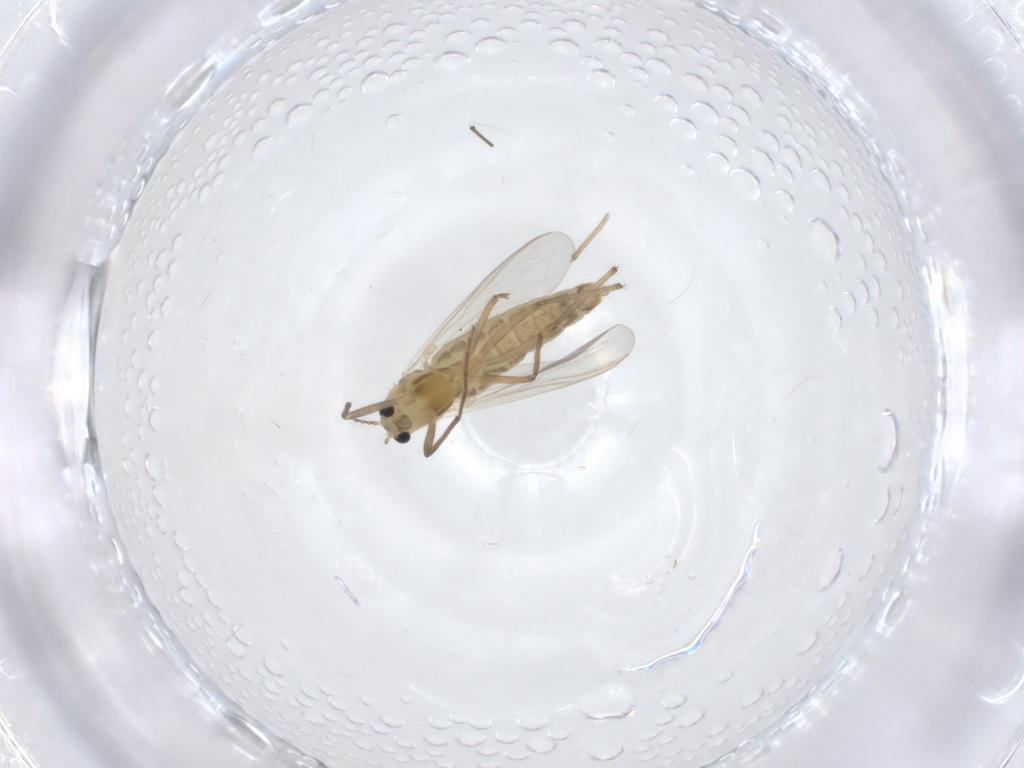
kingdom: Animalia
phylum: Arthropoda
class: Insecta
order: Diptera
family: Chironomidae
